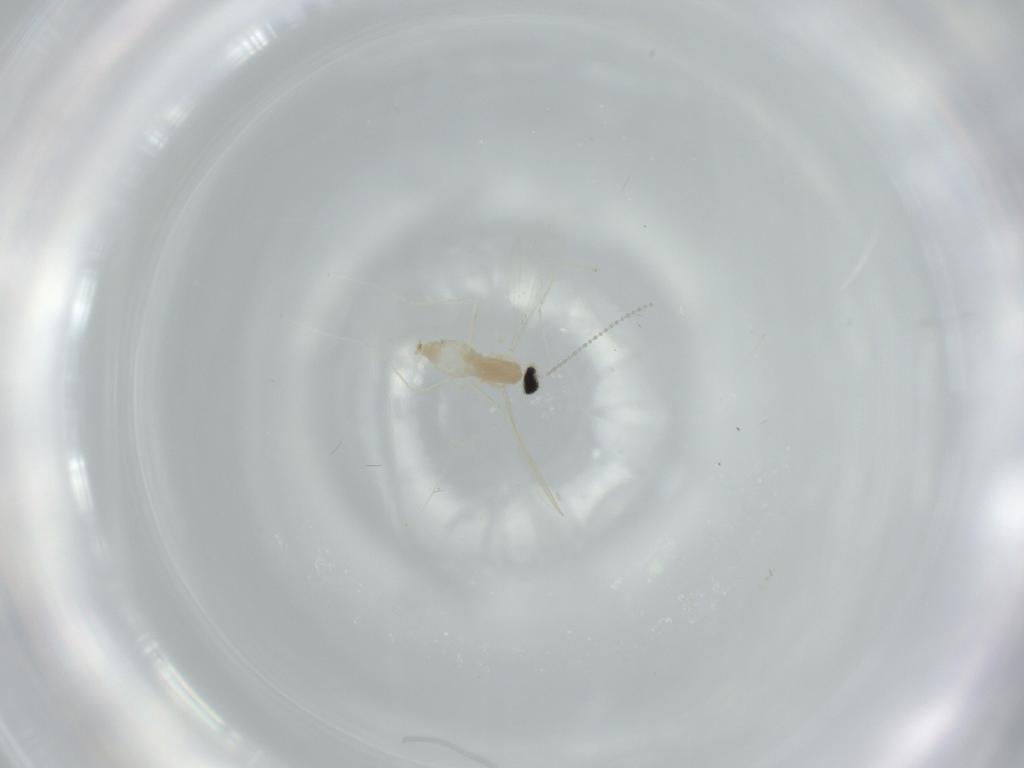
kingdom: Animalia
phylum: Arthropoda
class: Insecta
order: Diptera
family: Cecidomyiidae
